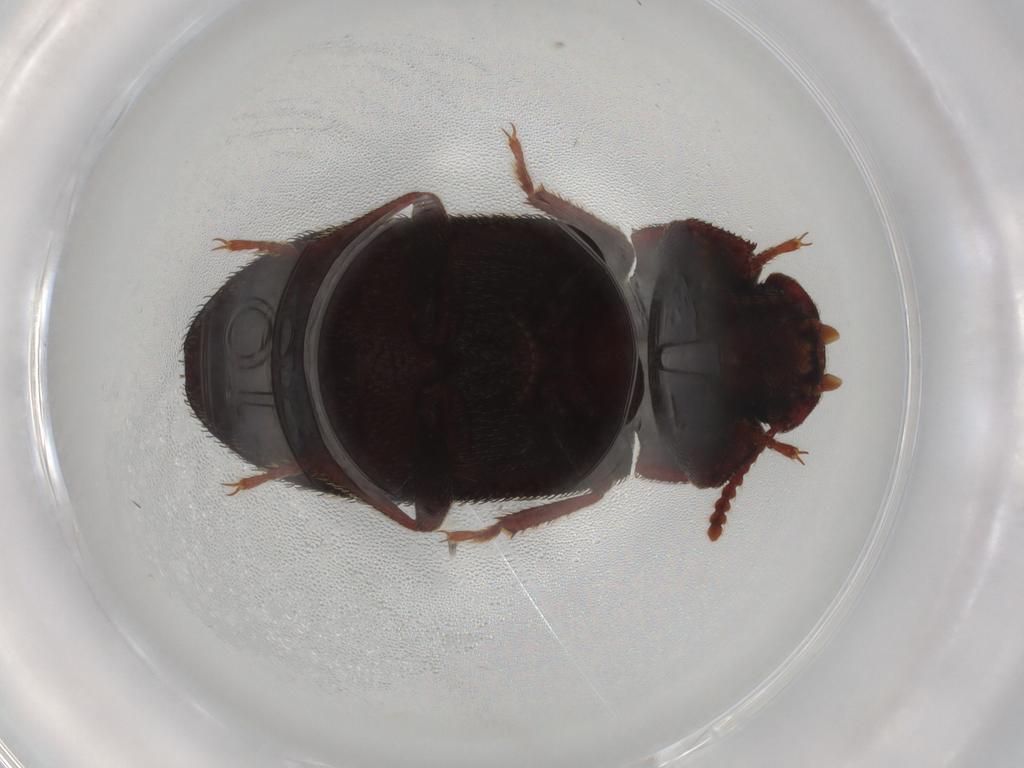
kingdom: Animalia
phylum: Arthropoda
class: Insecta
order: Coleoptera
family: Carabidae
